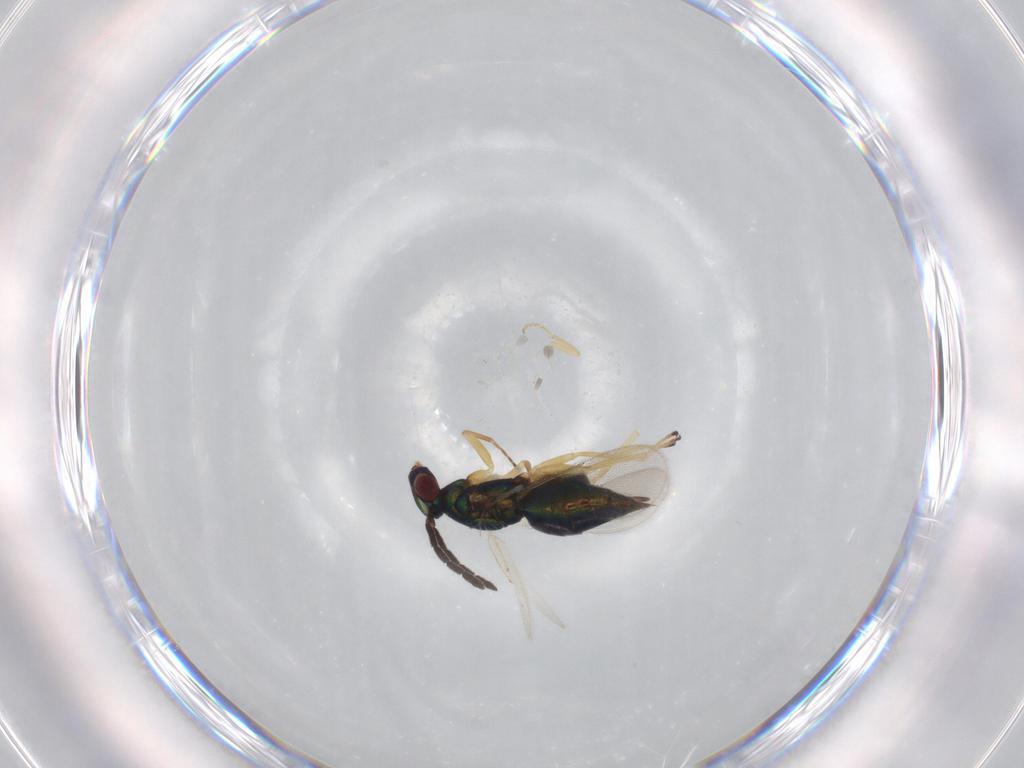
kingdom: Animalia
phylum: Arthropoda
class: Insecta
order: Hymenoptera
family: Eulophidae
